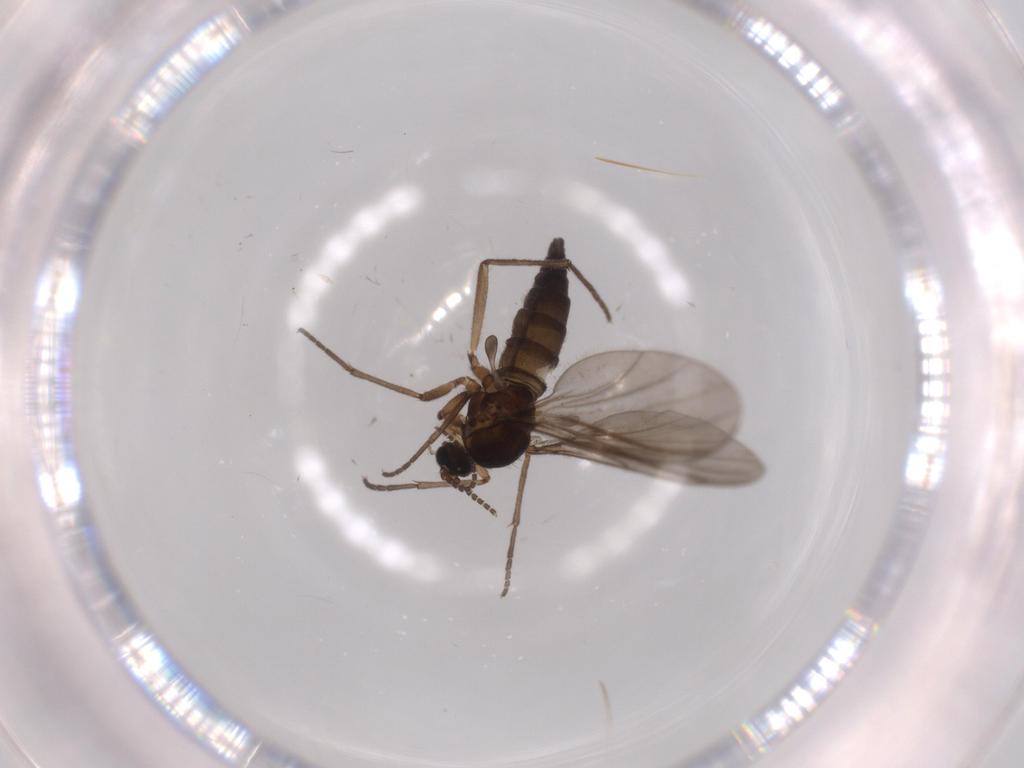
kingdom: Animalia
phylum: Arthropoda
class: Insecta
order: Diptera
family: Sciaridae
